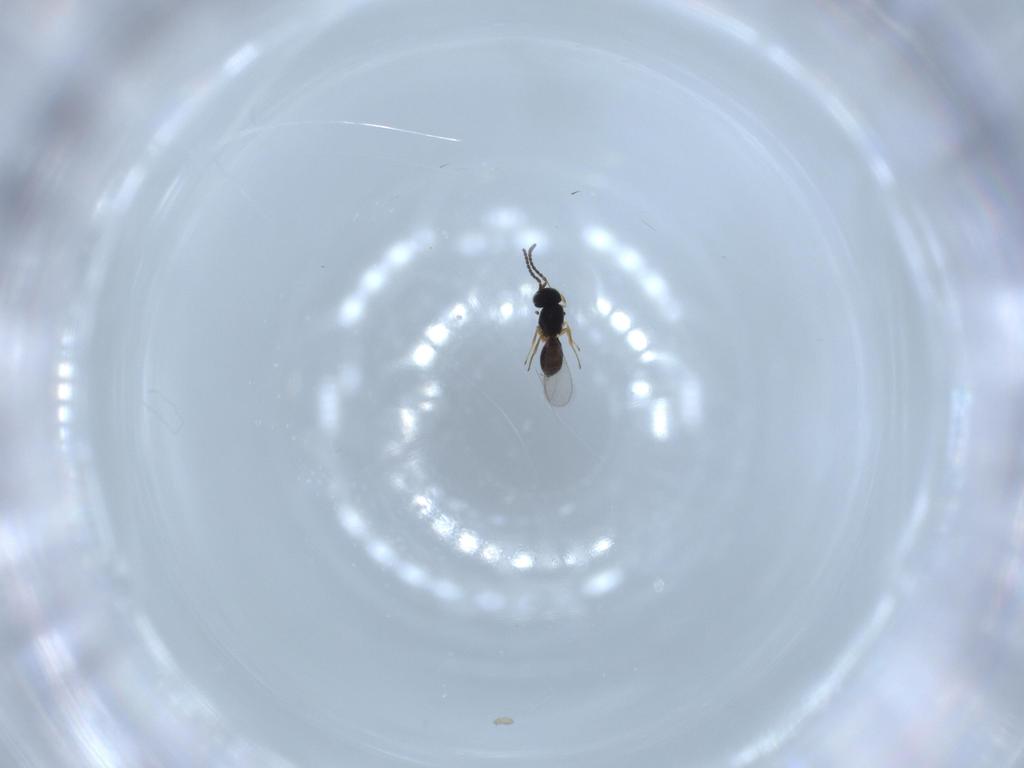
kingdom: Animalia
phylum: Arthropoda
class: Insecta
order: Hymenoptera
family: Scelionidae
